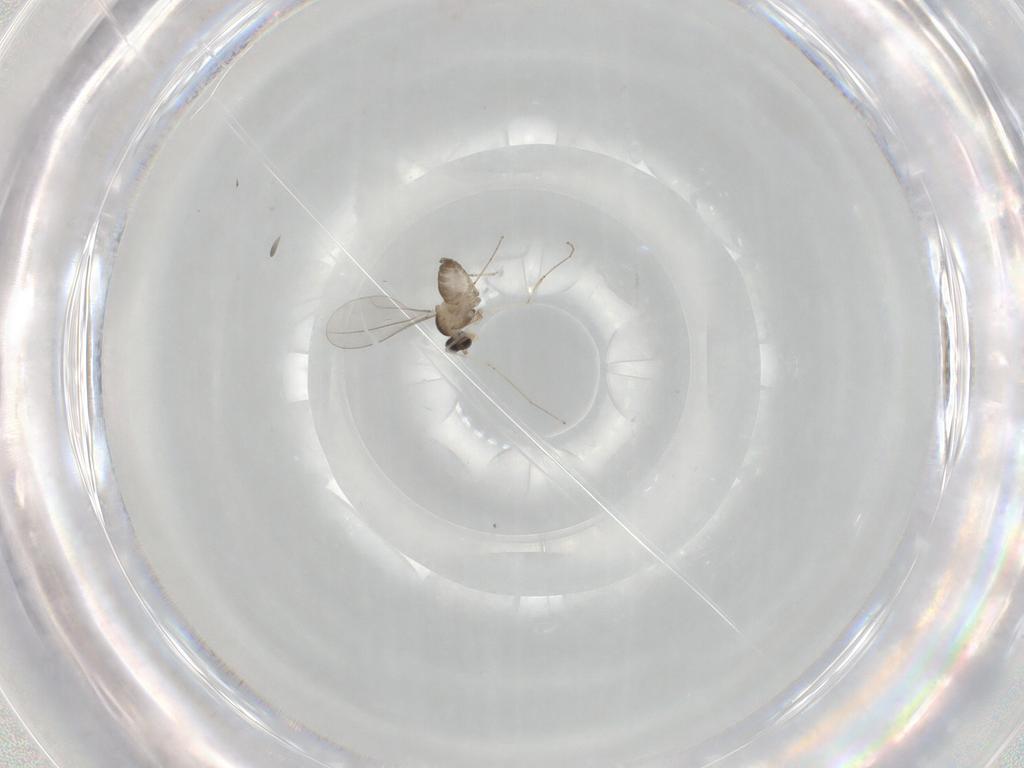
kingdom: Animalia
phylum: Arthropoda
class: Insecta
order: Diptera
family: Cecidomyiidae
